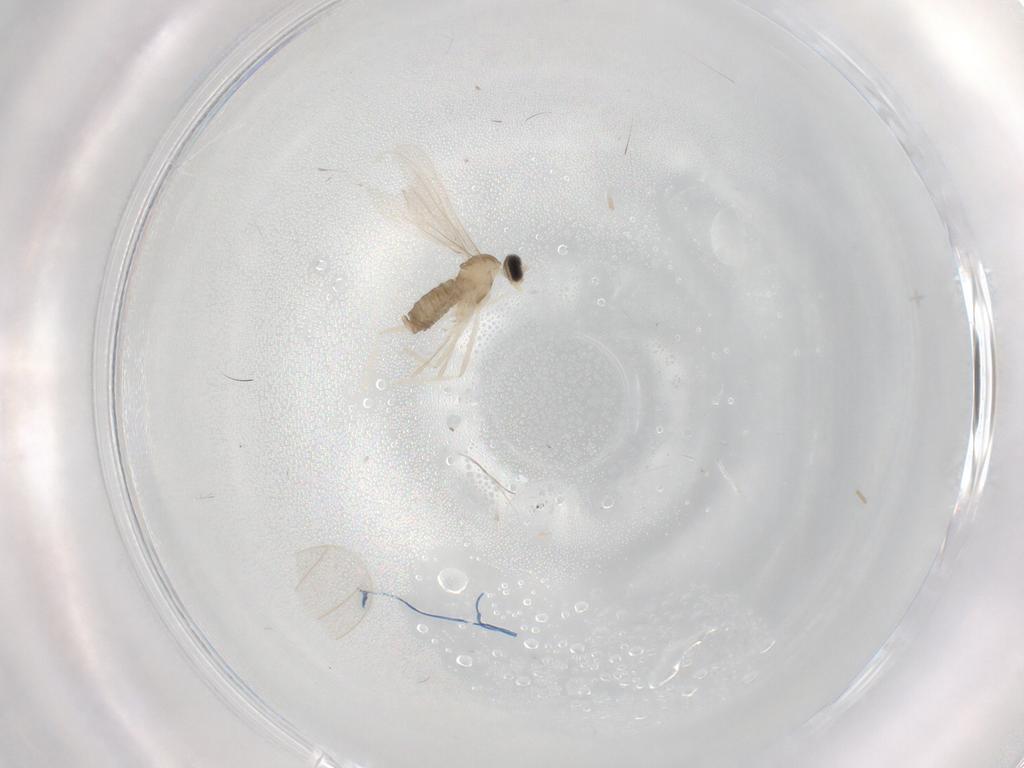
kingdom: Animalia
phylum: Arthropoda
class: Insecta
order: Diptera
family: Cecidomyiidae
